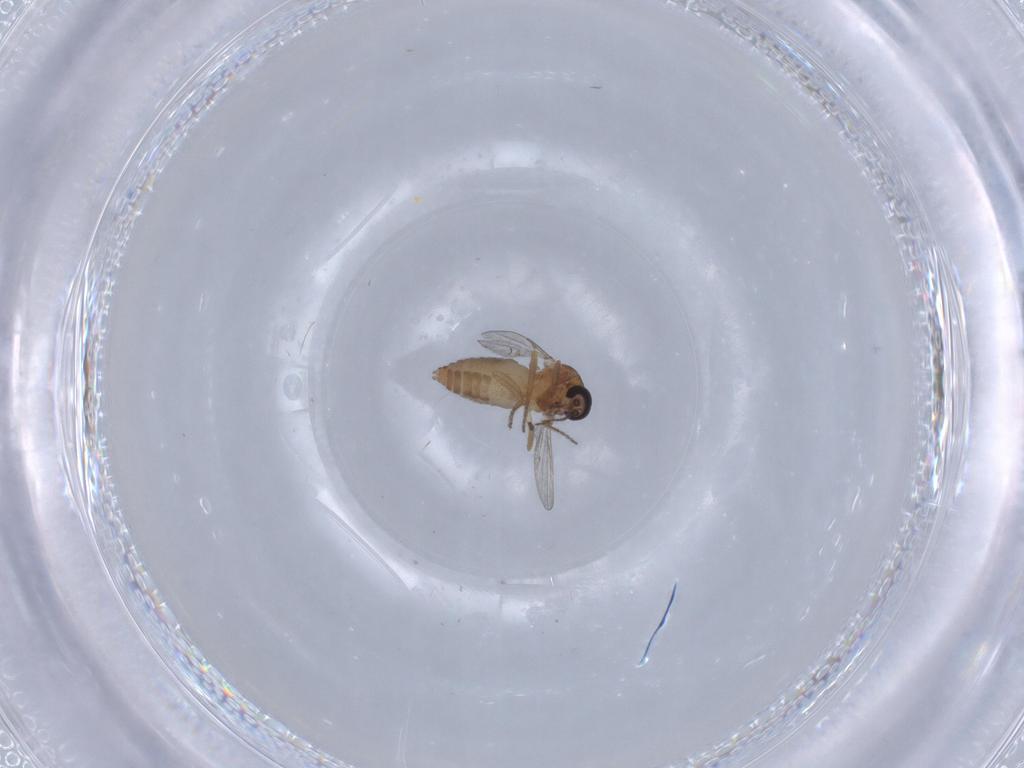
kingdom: Animalia
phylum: Arthropoda
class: Insecta
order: Diptera
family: Ceratopogonidae
